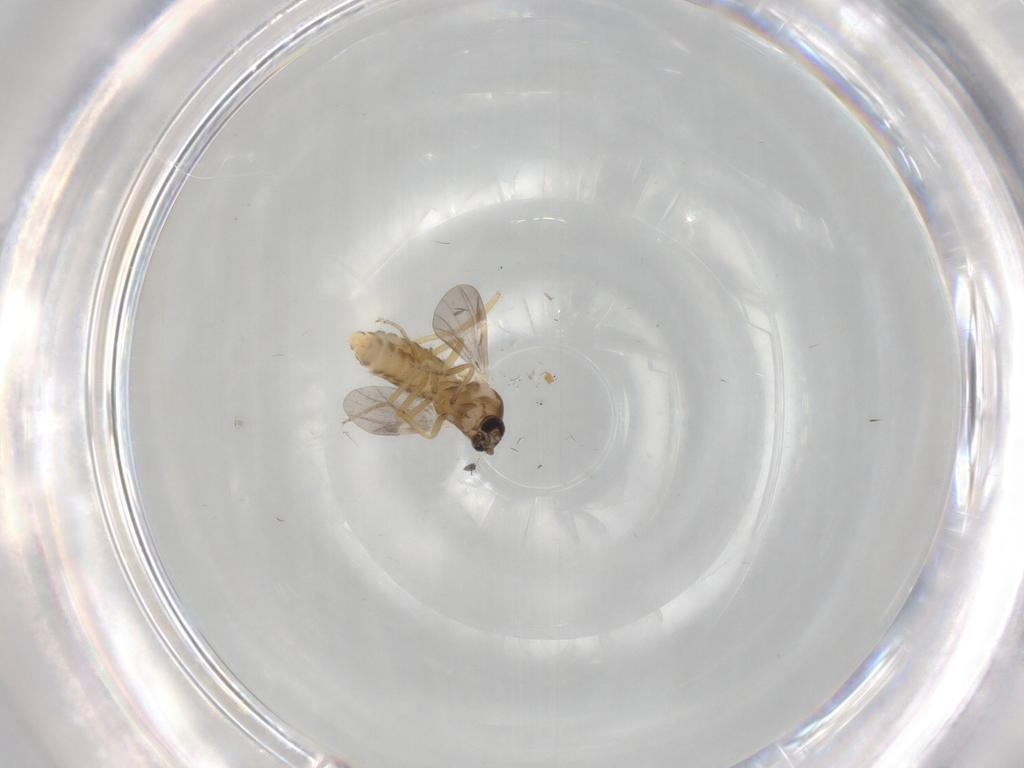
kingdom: Animalia
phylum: Arthropoda
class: Insecta
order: Diptera
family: Ceratopogonidae
